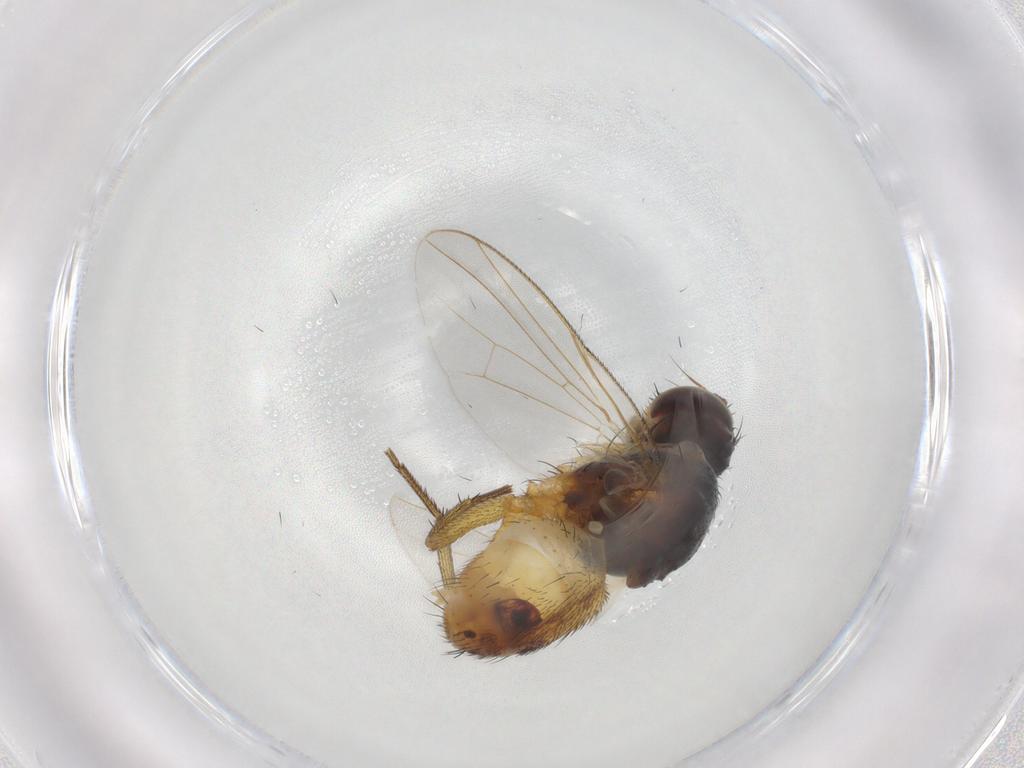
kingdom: Animalia
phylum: Arthropoda
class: Insecta
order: Diptera
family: Muscidae
